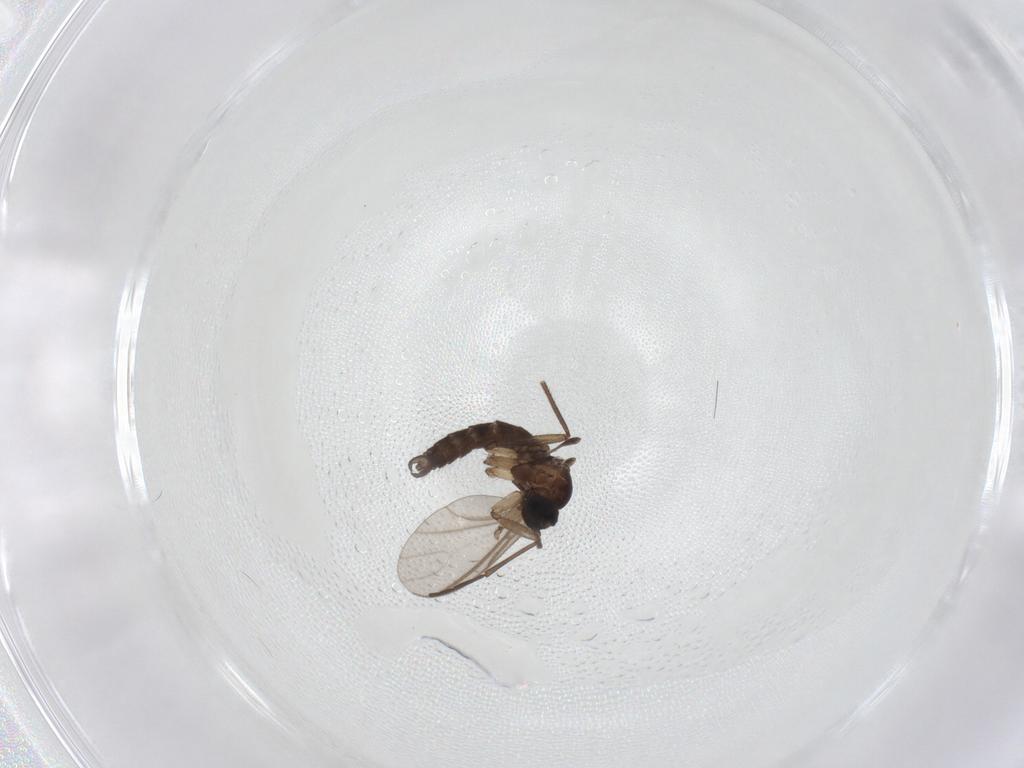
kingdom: Animalia
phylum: Arthropoda
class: Insecta
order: Diptera
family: Sciaridae
